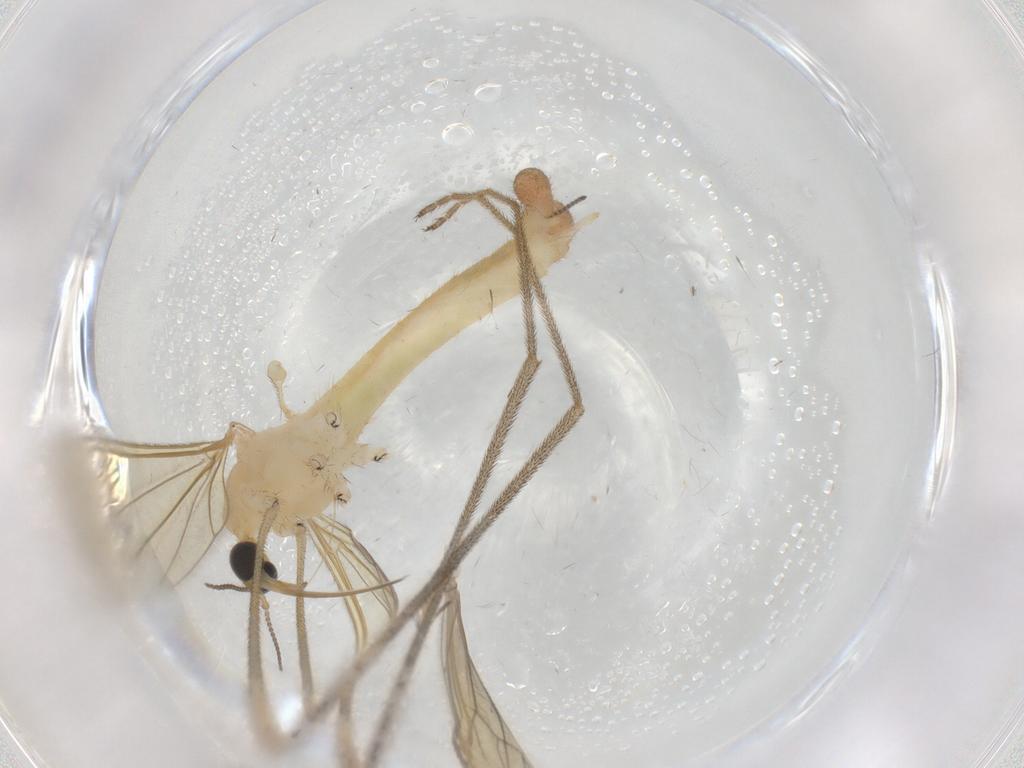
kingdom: Animalia
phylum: Arthropoda
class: Insecta
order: Diptera
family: Limoniidae
